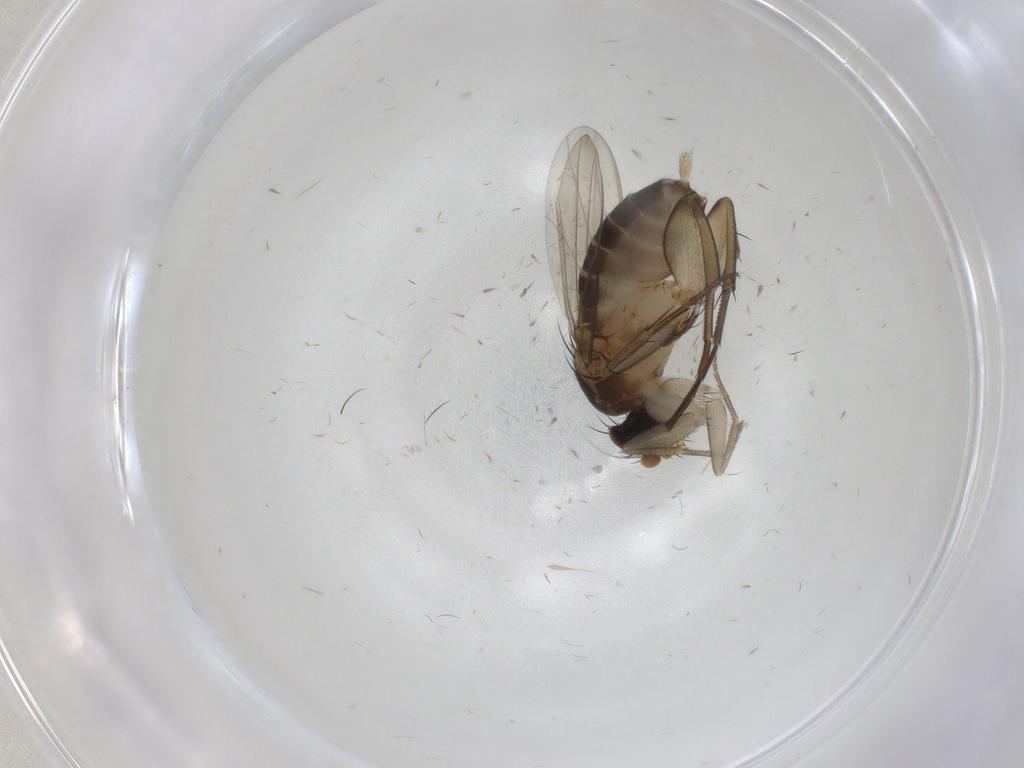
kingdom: Animalia
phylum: Arthropoda
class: Insecta
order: Diptera
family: Phoridae
